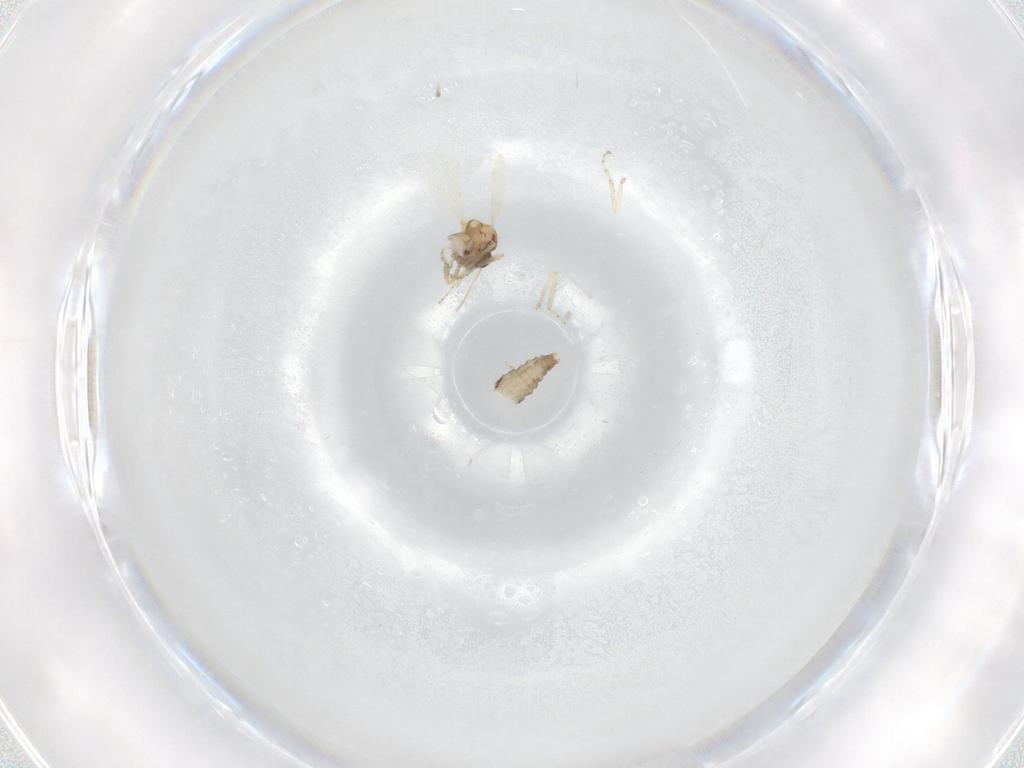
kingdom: Animalia
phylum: Arthropoda
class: Insecta
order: Diptera
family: Ceratopogonidae
